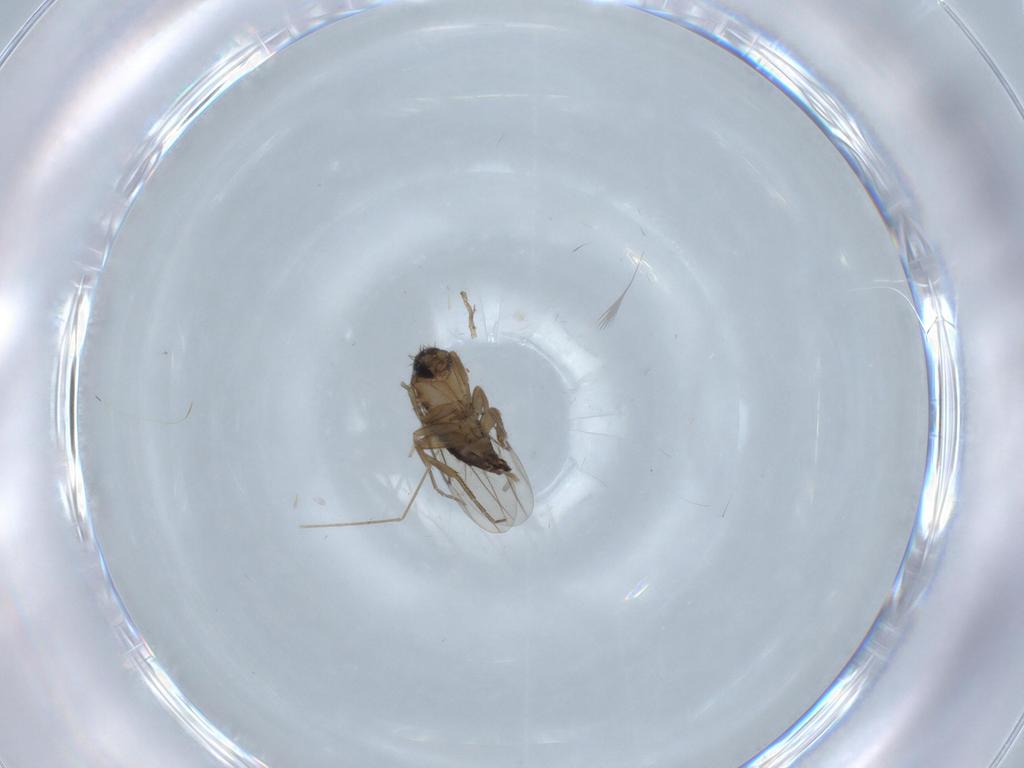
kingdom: Animalia
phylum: Arthropoda
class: Insecta
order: Diptera
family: Phoridae
